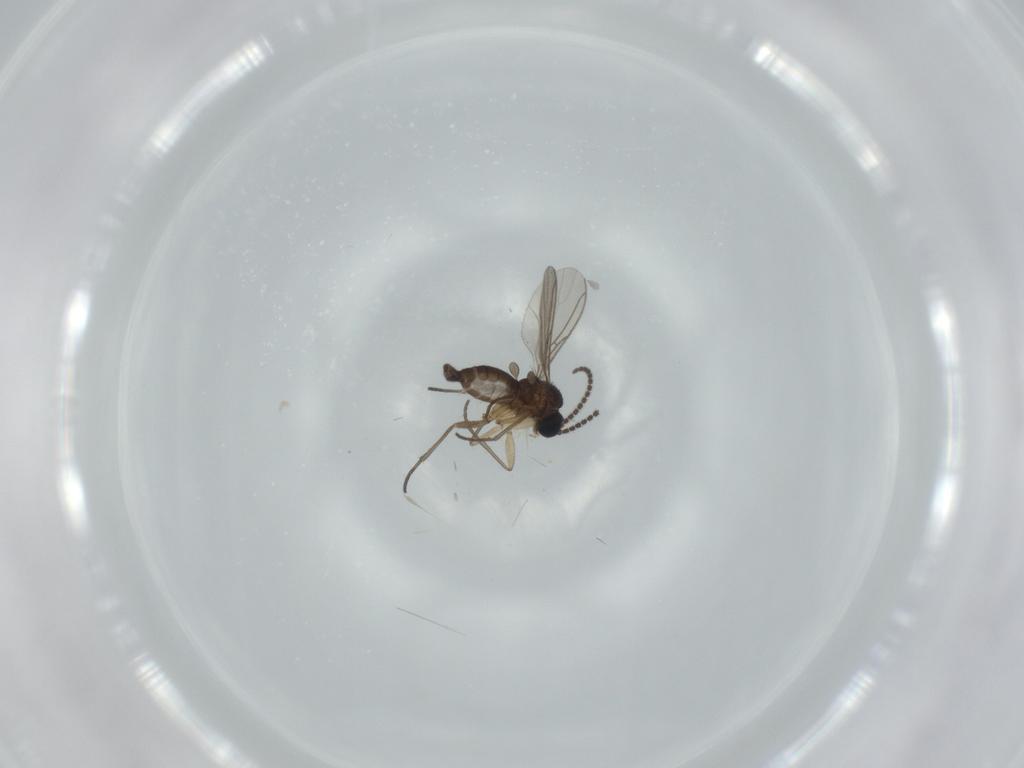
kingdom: Animalia
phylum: Arthropoda
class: Insecta
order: Diptera
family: Sciaridae
